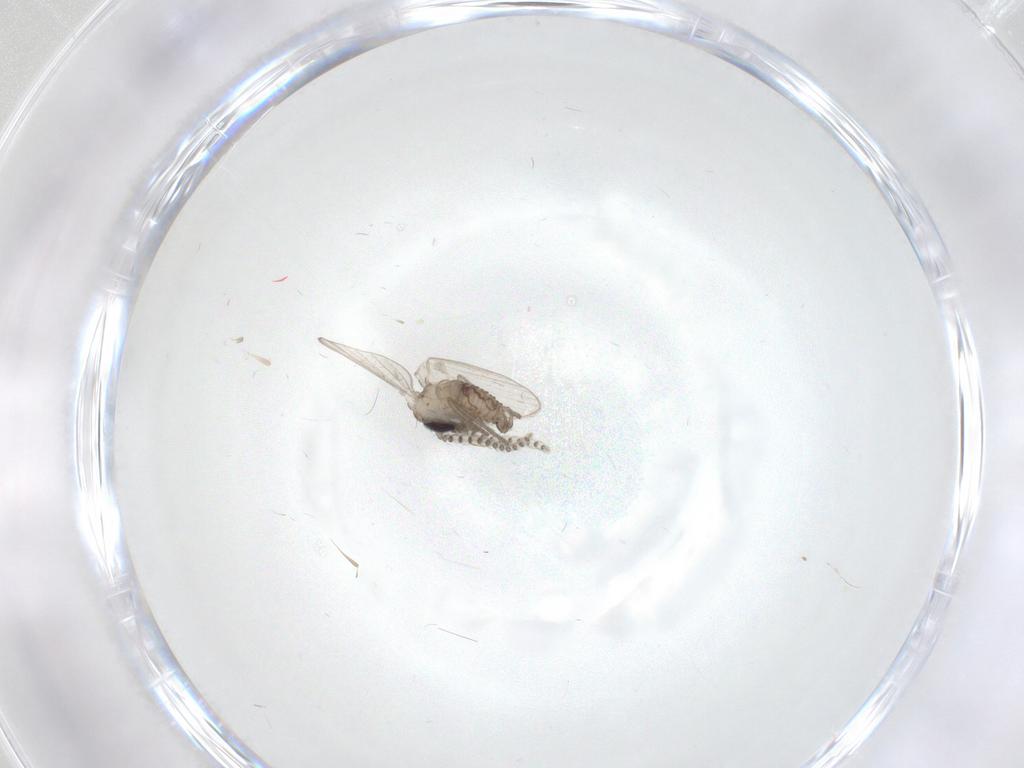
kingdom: Animalia
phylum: Arthropoda
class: Insecta
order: Diptera
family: Psychodidae
